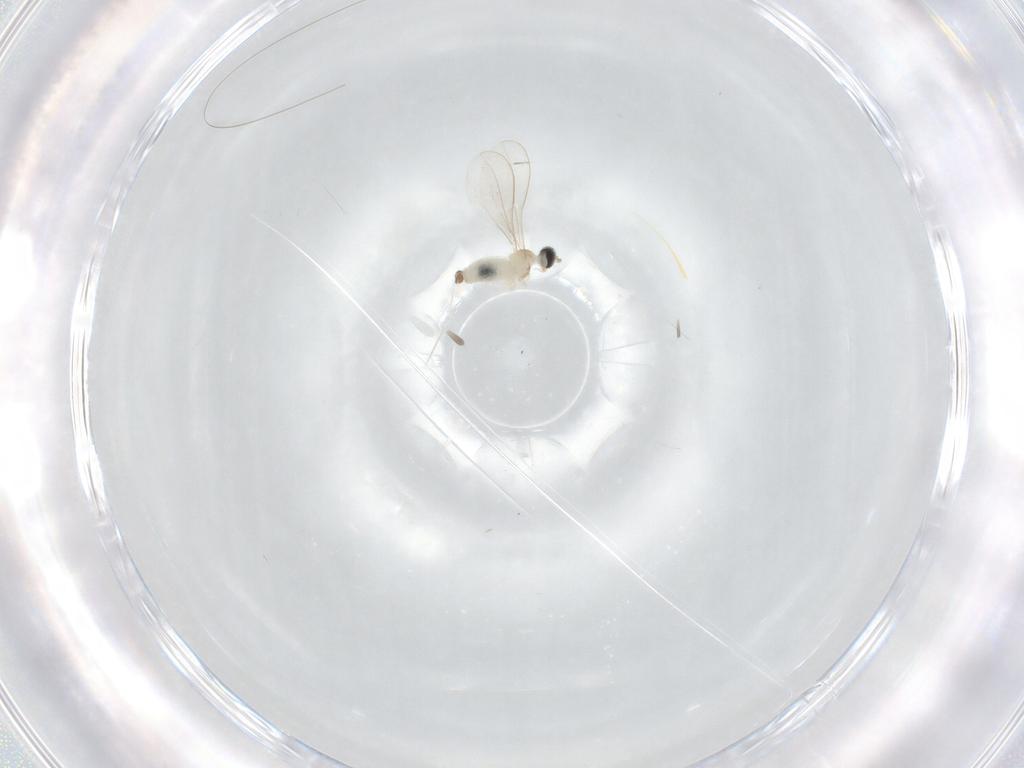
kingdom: Animalia
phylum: Arthropoda
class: Insecta
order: Diptera
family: Cecidomyiidae
